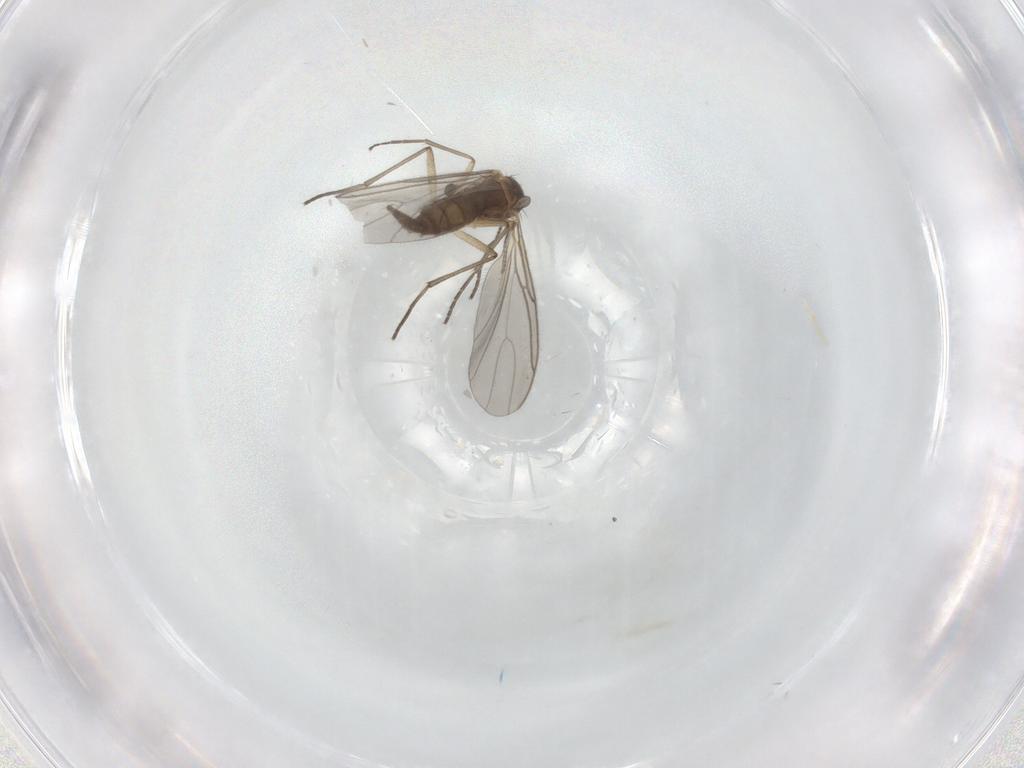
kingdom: Animalia
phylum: Arthropoda
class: Insecta
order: Diptera
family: Sciaridae
